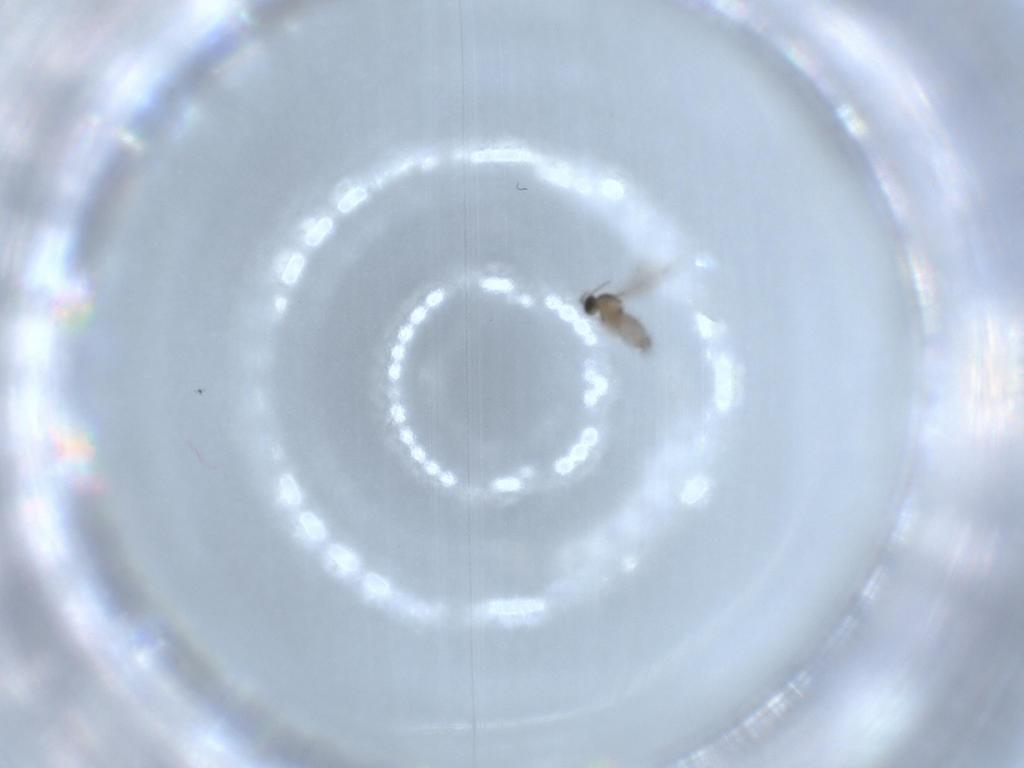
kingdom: Animalia
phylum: Arthropoda
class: Insecta
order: Diptera
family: Cecidomyiidae
